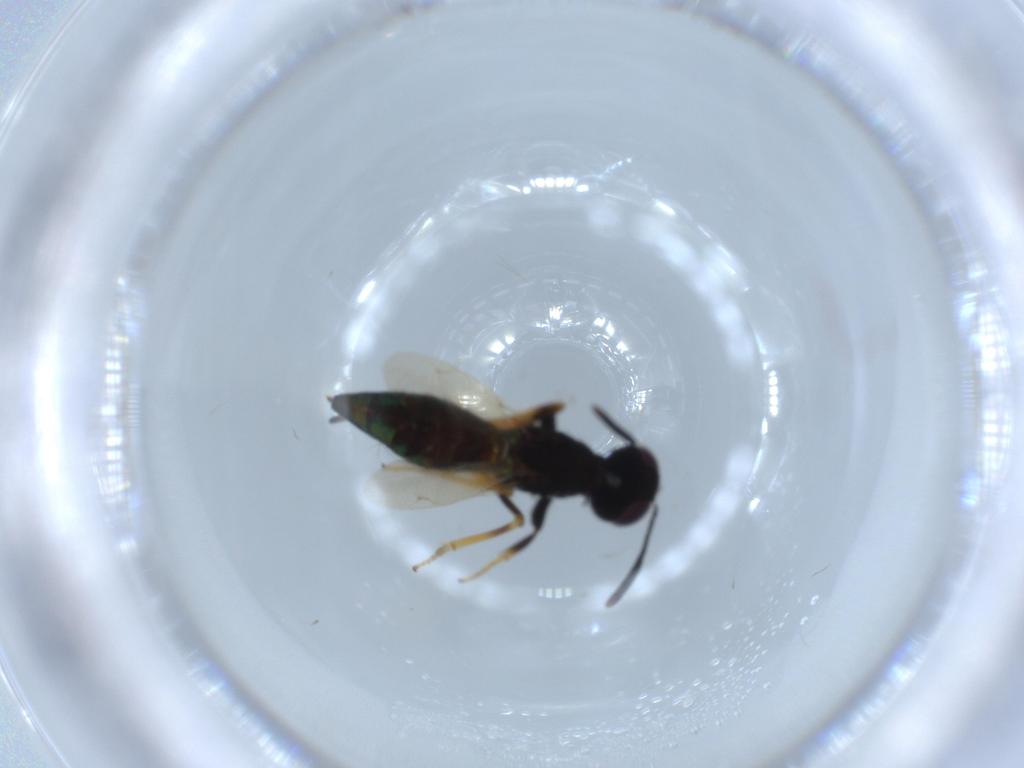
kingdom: Animalia
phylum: Arthropoda
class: Insecta
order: Hymenoptera
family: Eupelmidae
